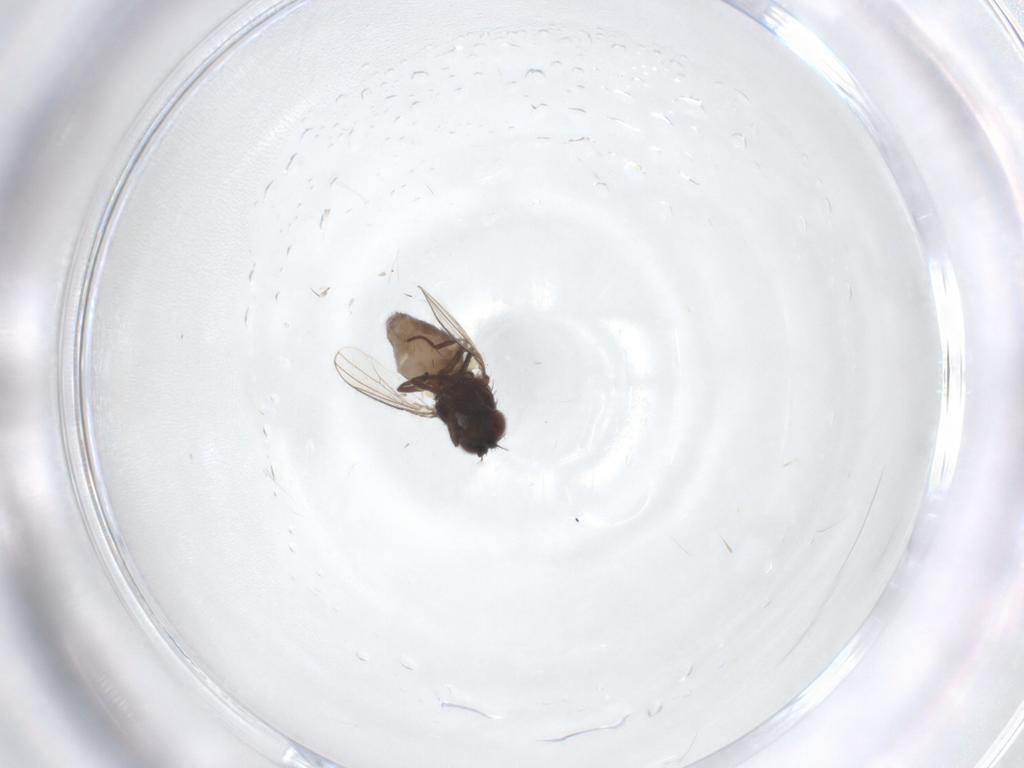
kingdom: Animalia
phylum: Arthropoda
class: Insecta
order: Diptera
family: Ephydridae
